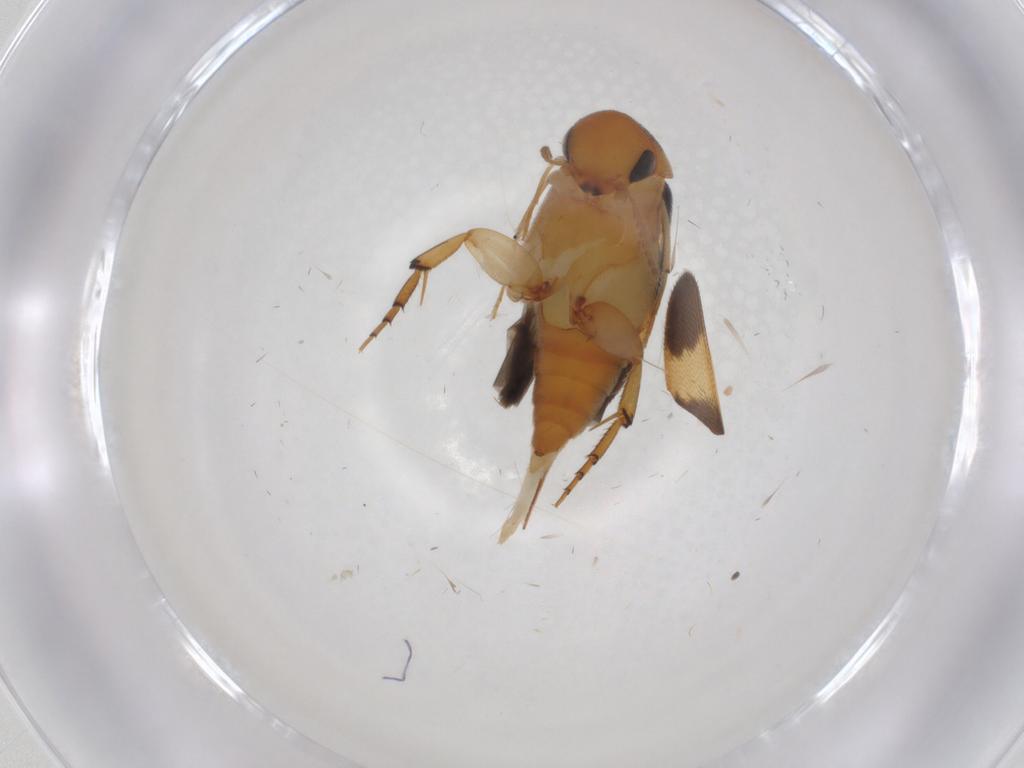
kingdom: Animalia
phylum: Arthropoda
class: Insecta
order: Coleoptera
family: Mordellidae
